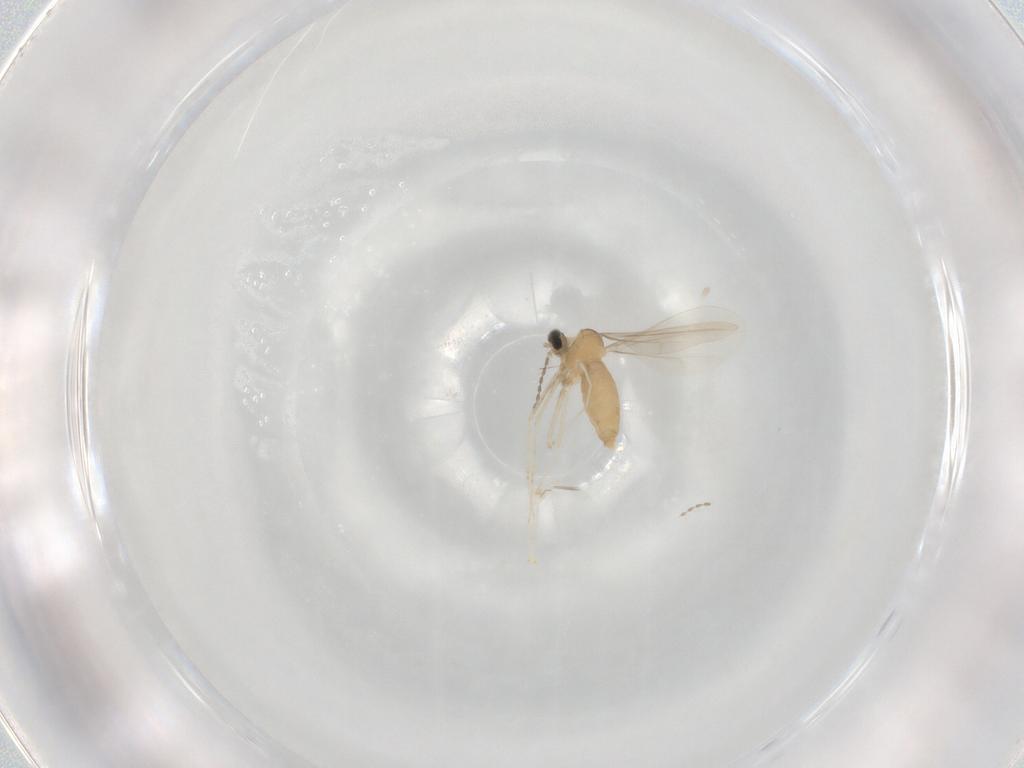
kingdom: Animalia
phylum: Arthropoda
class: Insecta
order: Diptera
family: Cecidomyiidae
